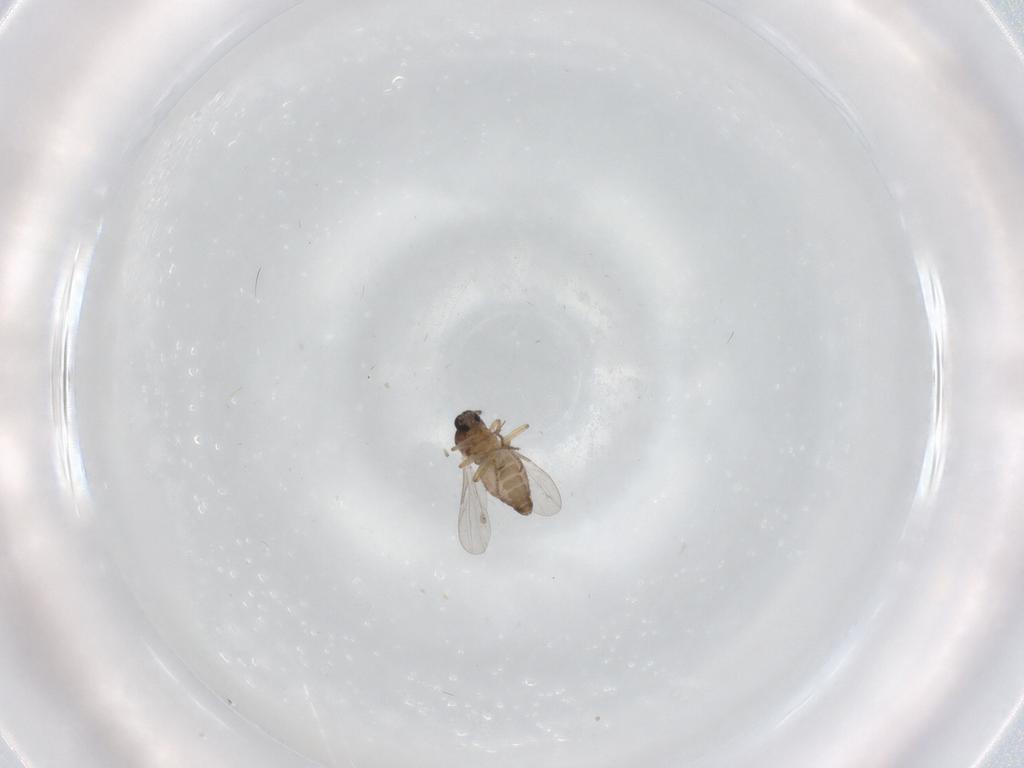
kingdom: Animalia
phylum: Arthropoda
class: Insecta
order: Diptera
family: Ceratopogonidae
